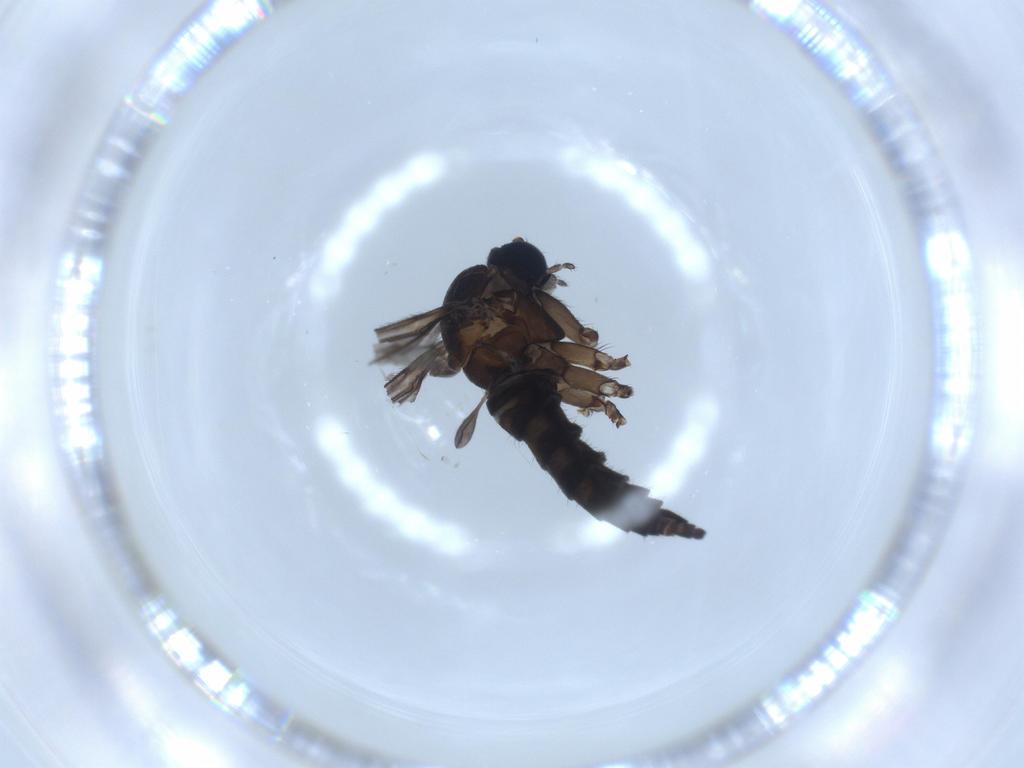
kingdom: Animalia
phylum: Arthropoda
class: Insecta
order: Diptera
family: Sciaridae
